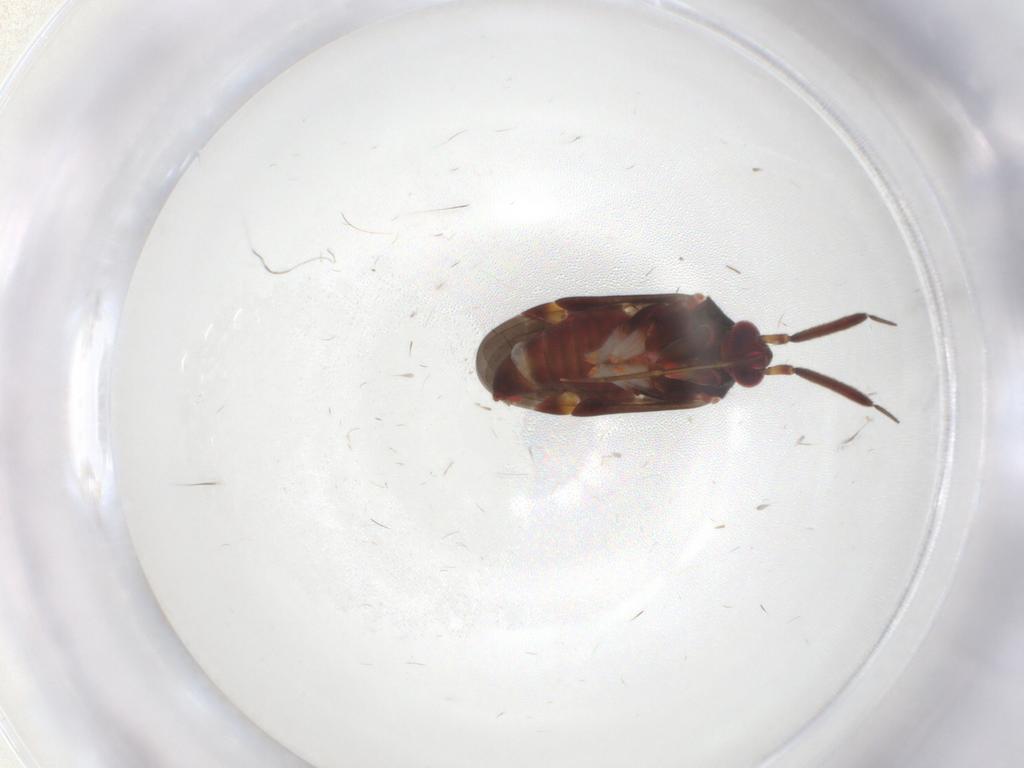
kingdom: Animalia
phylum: Arthropoda
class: Insecta
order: Hemiptera
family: Miridae
